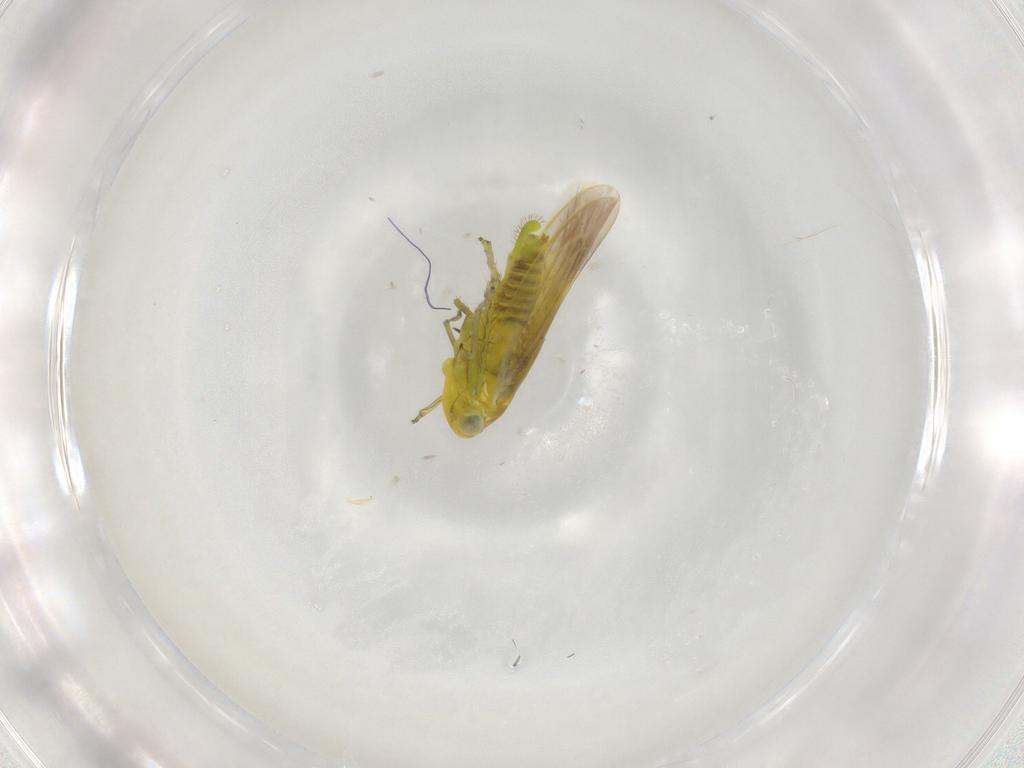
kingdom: Animalia
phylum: Arthropoda
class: Insecta
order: Hemiptera
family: Cicadellidae
